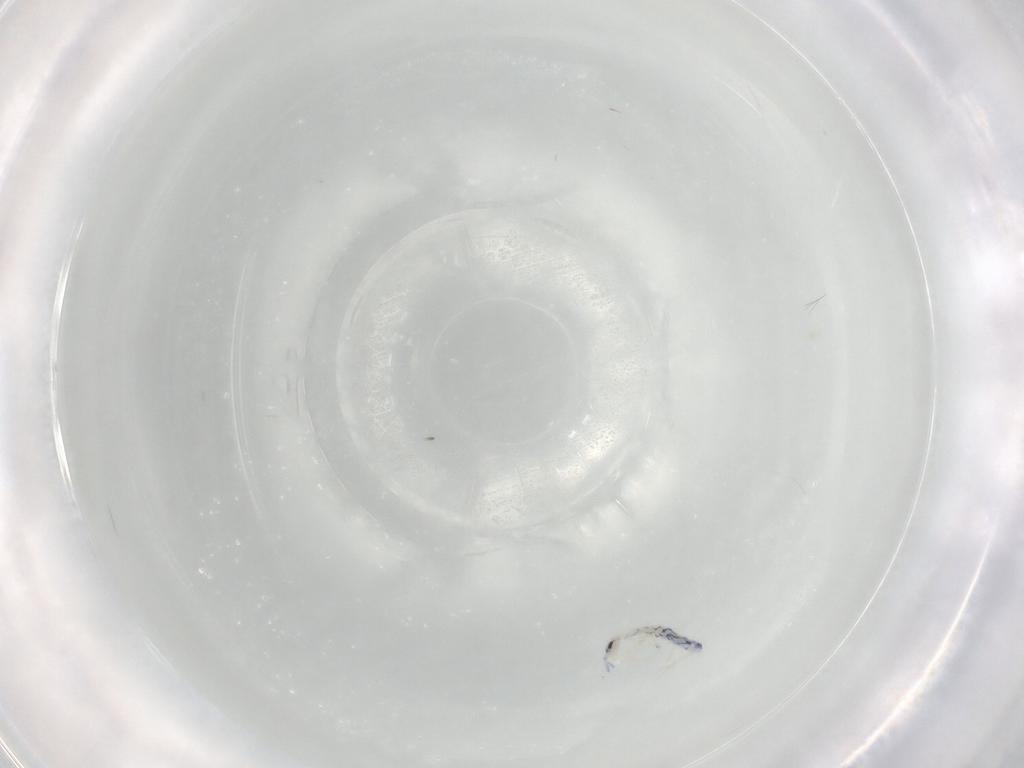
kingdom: Animalia
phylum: Arthropoda
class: Collembola
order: Entomobryomorpha
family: Entomobryidae
